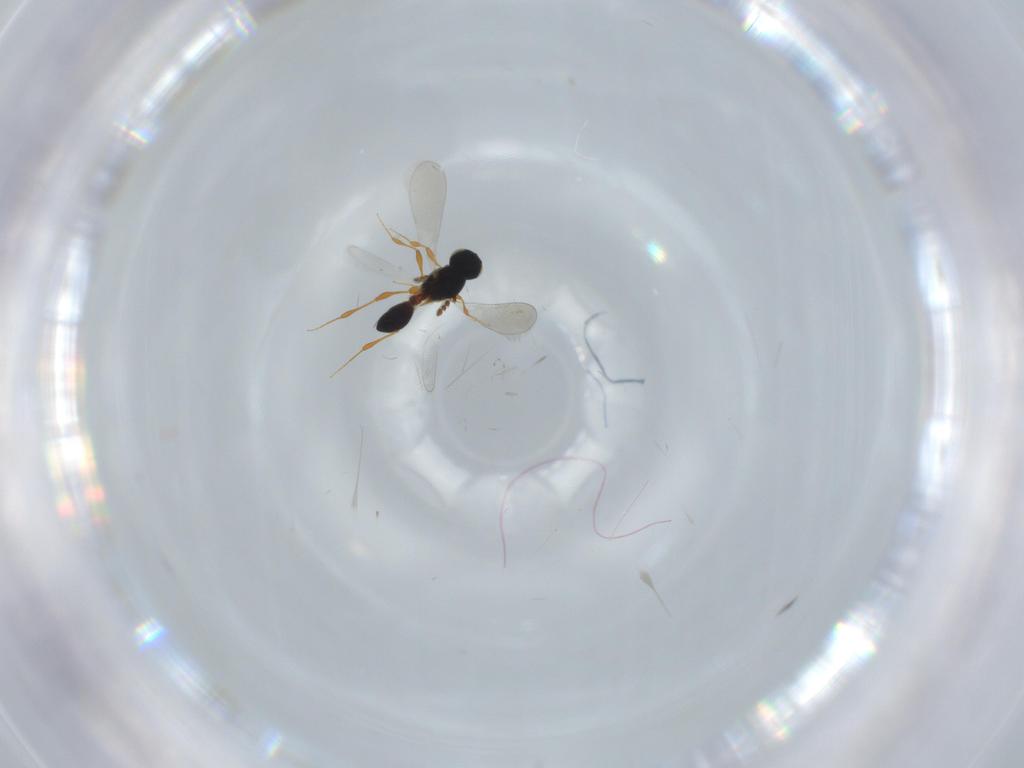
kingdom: Animalia
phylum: Arthropoda
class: Insecta
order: Hymenoptera
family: Platygastridae
